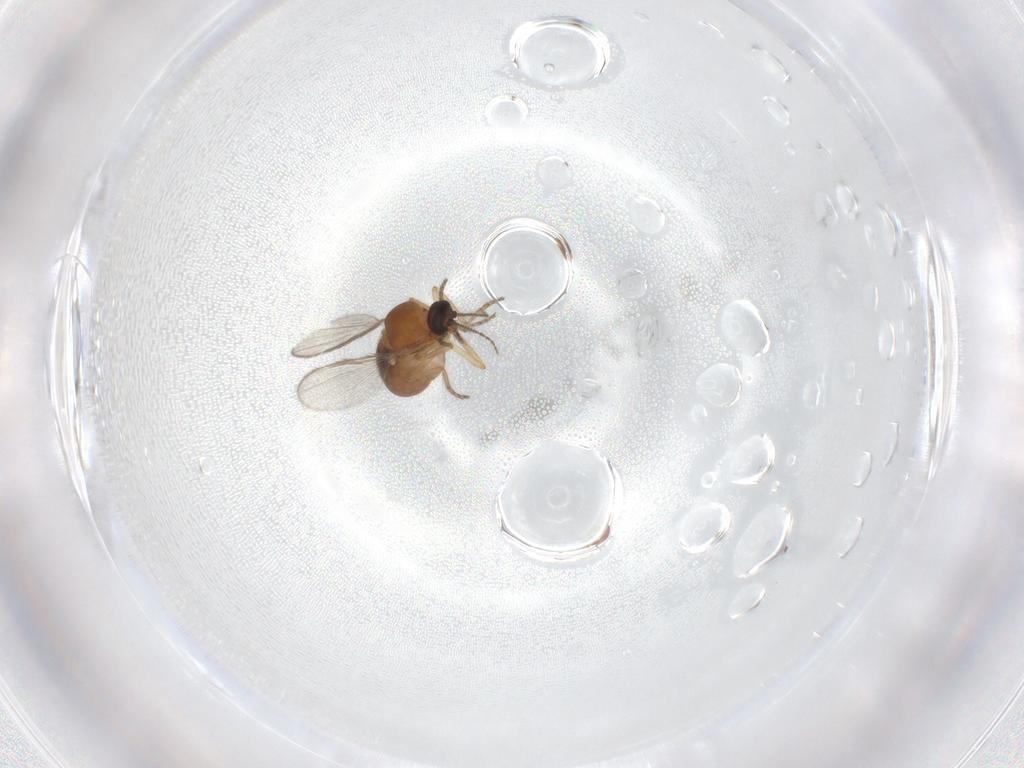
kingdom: Animalia
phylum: Arthropoda
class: Insecta
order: Diptera
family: Ceratopogonidae
